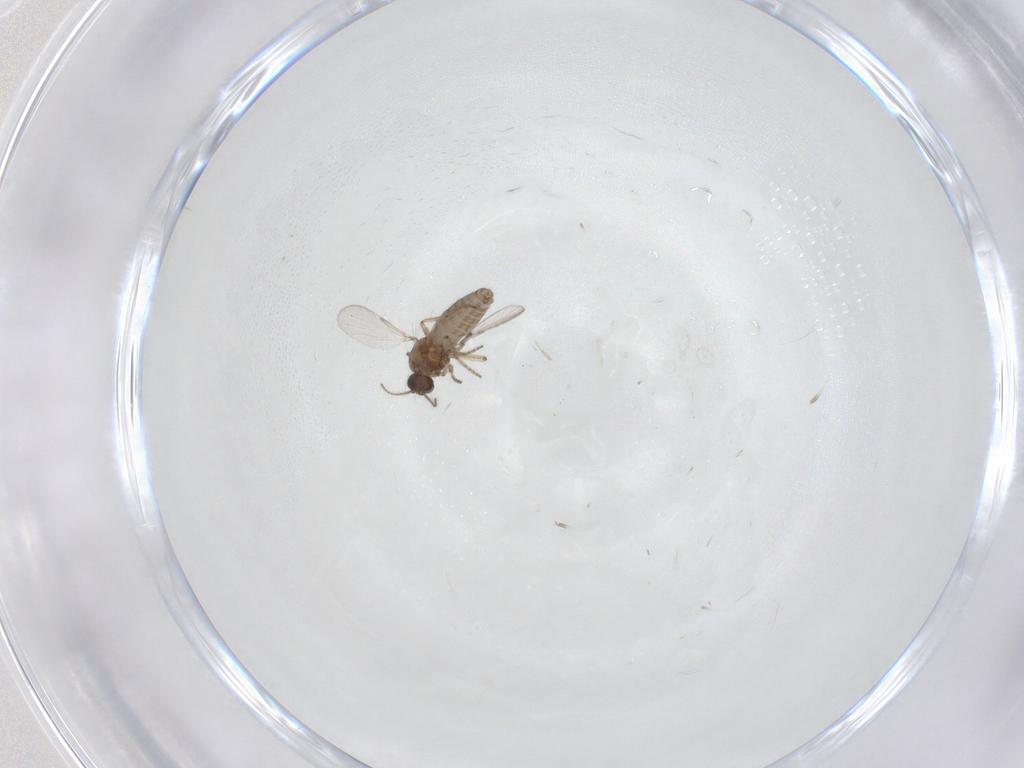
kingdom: Animalia
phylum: Arthropoda
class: Insecta
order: Diptera
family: Ceratopogonidae
